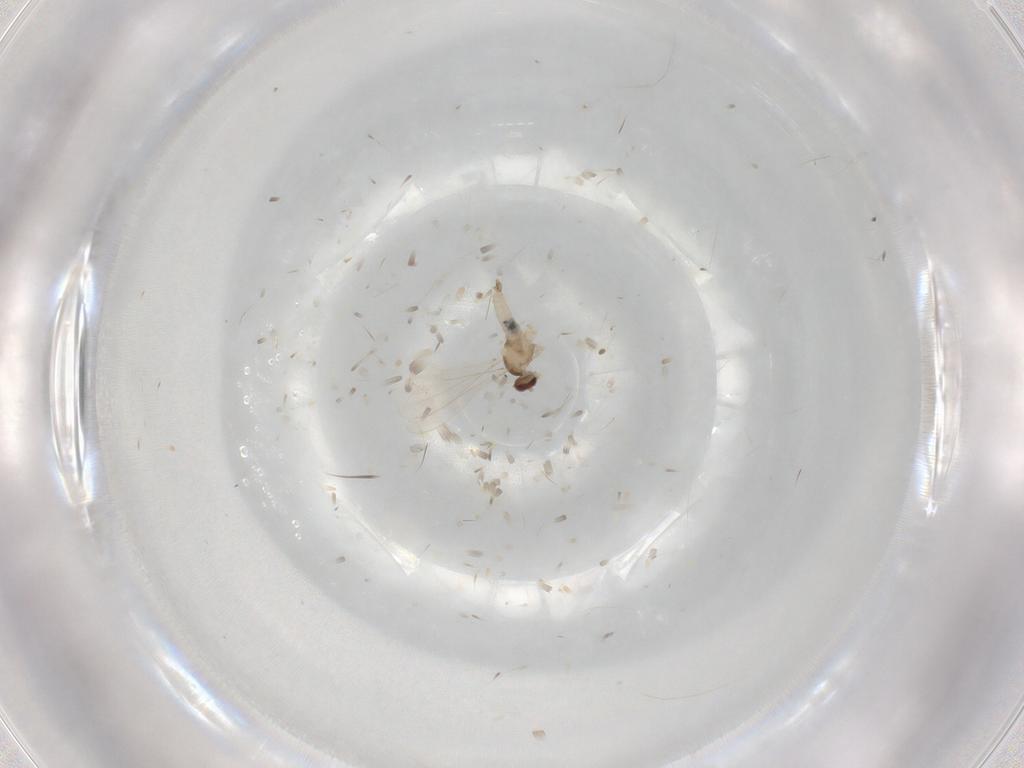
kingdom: Animalia
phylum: Arthropoda
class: Insecta
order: Diptera
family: Cecidomyiidae
